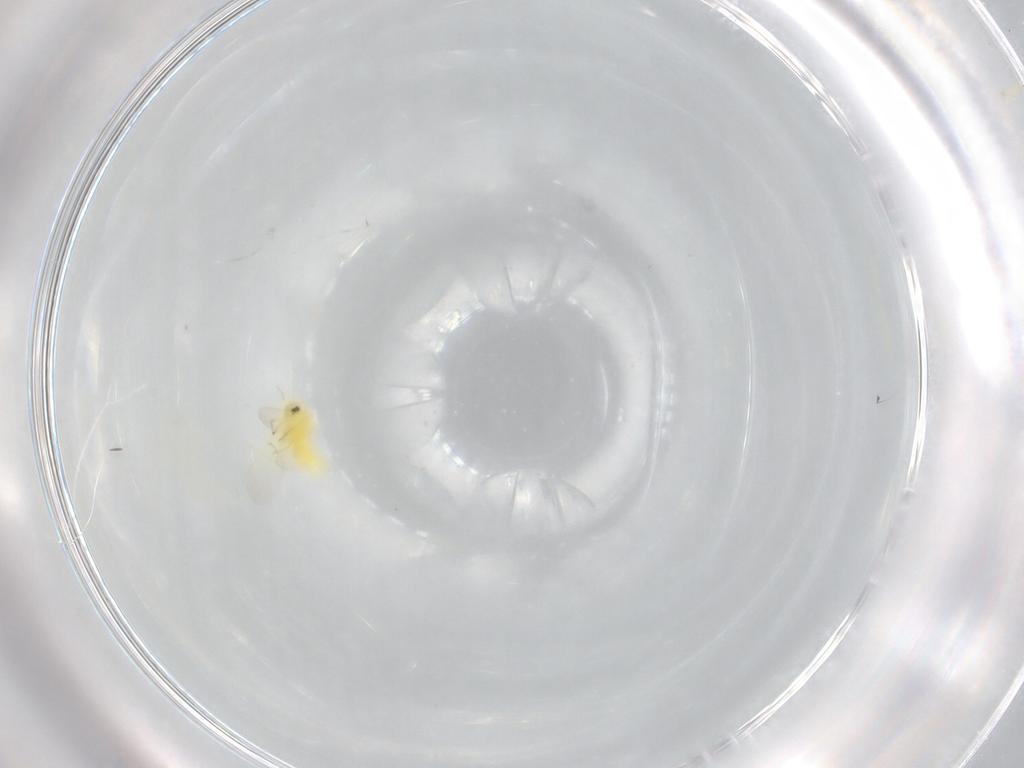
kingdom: Animalia
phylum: Arthropoda
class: Insecta
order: Hemiptera
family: Aleyrodidae
